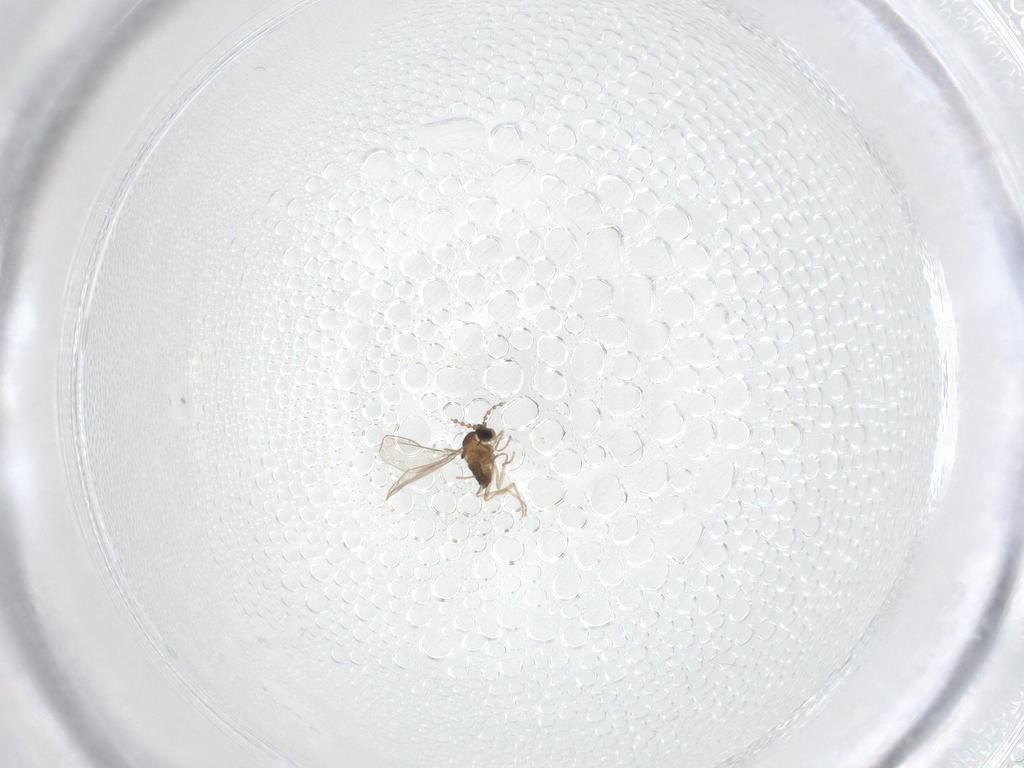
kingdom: Animalia
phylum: Arthropoda
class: Insecta
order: Diptera
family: Cecidomyiidae
